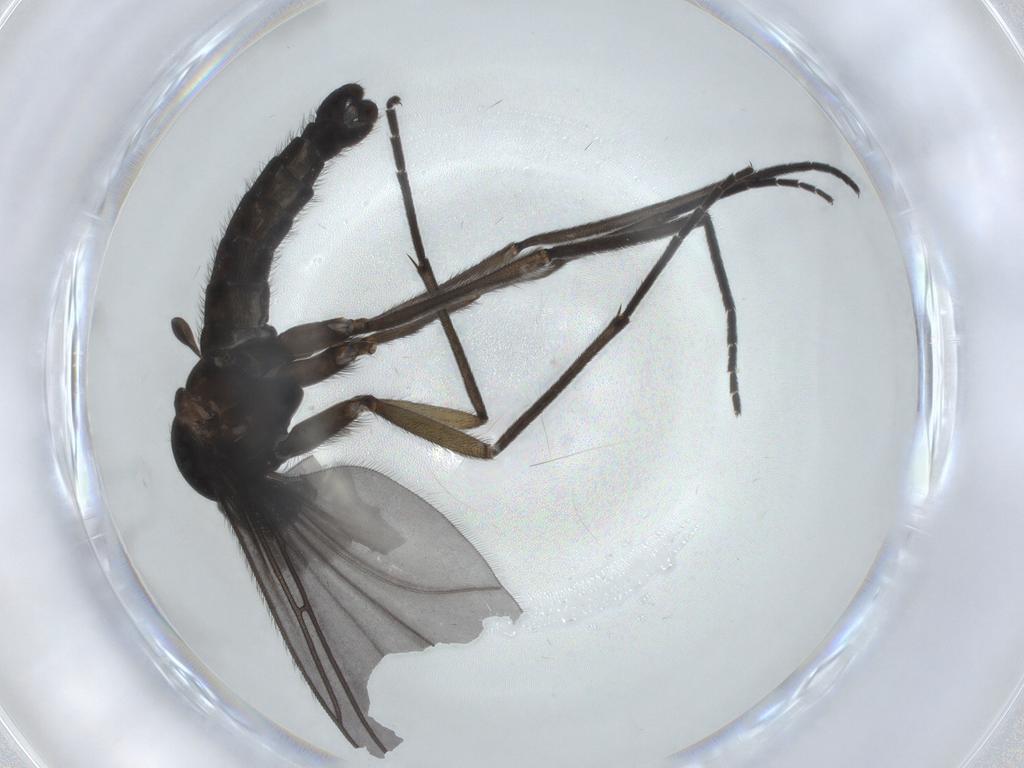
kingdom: Animalia
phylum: Arthropoda
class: Insecta
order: Diptera
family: Sciaridae
